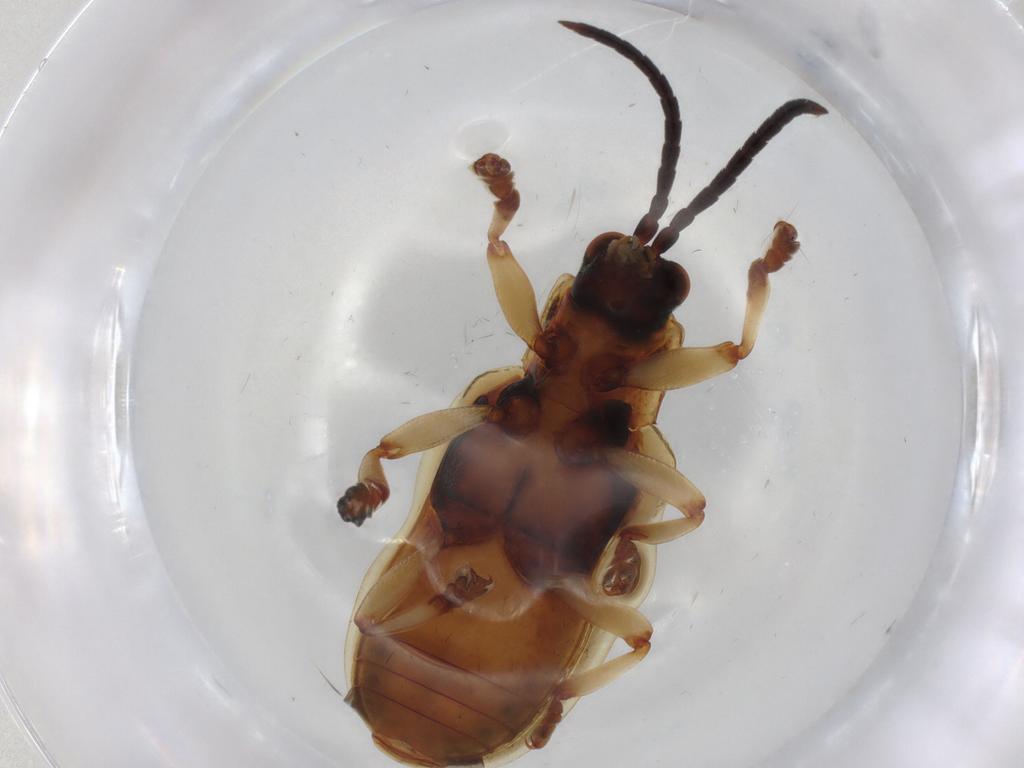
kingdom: Animalia
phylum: Arthropoda
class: Insecta
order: Coleoptera
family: Chrysomelidae
